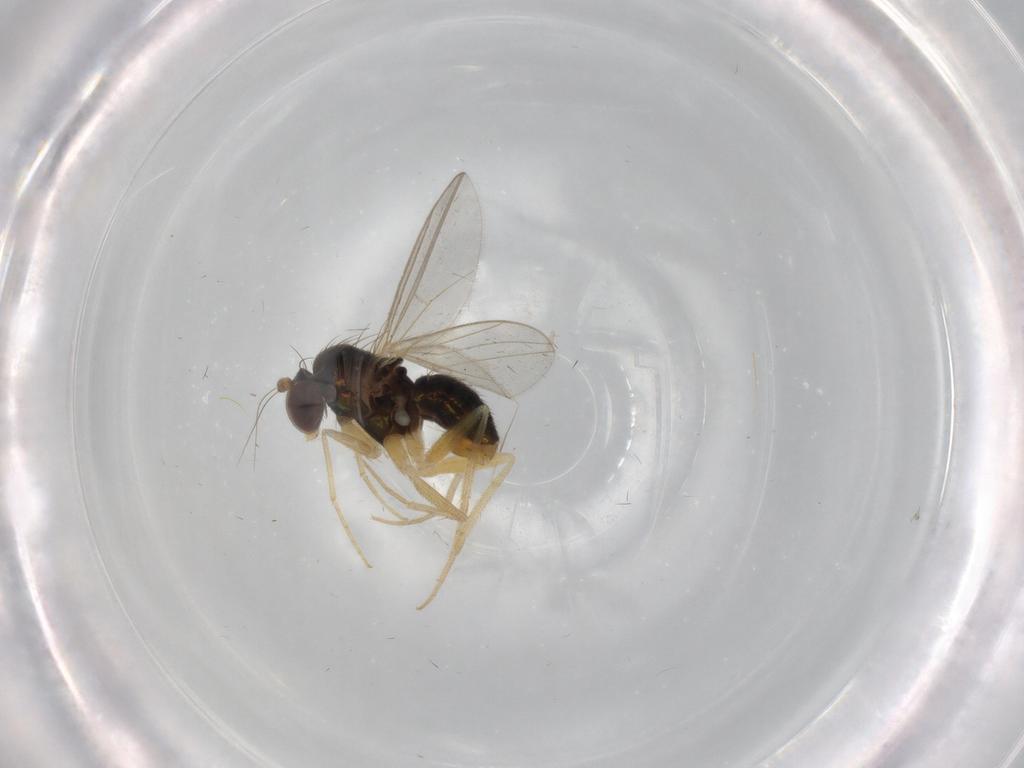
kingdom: Animalia
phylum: Arthropoda
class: Insecta
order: Diptera
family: Dolichopodidae
